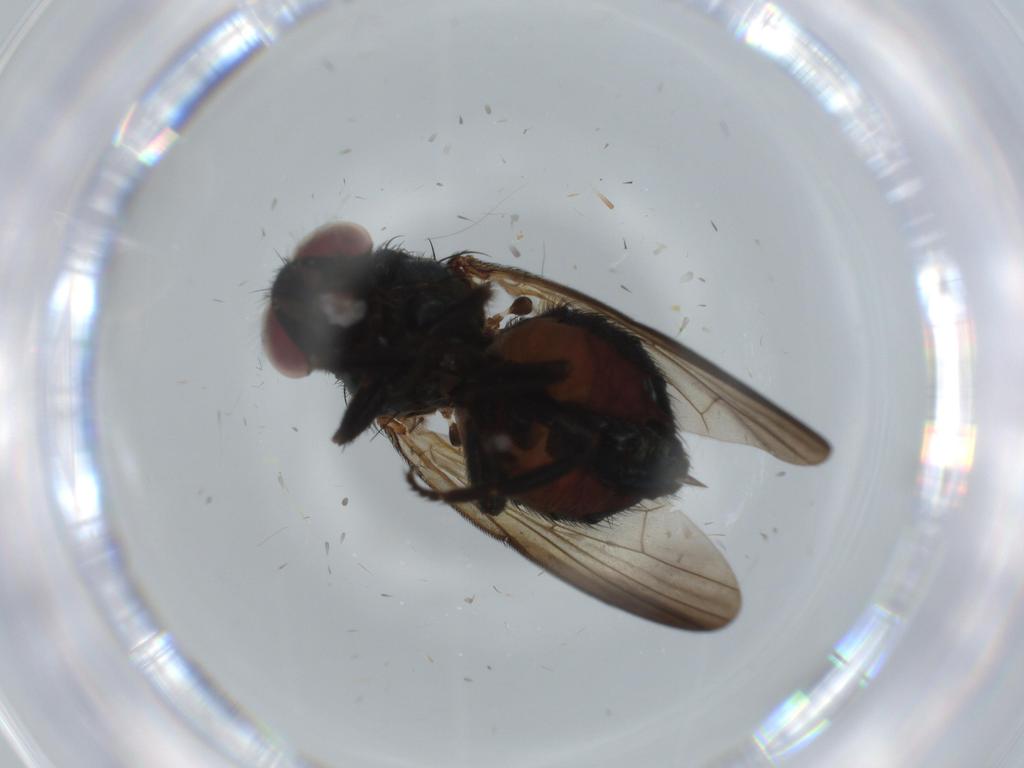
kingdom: Animalia
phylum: Arthropoda
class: Insecta
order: Diptera
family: Sciaridae
